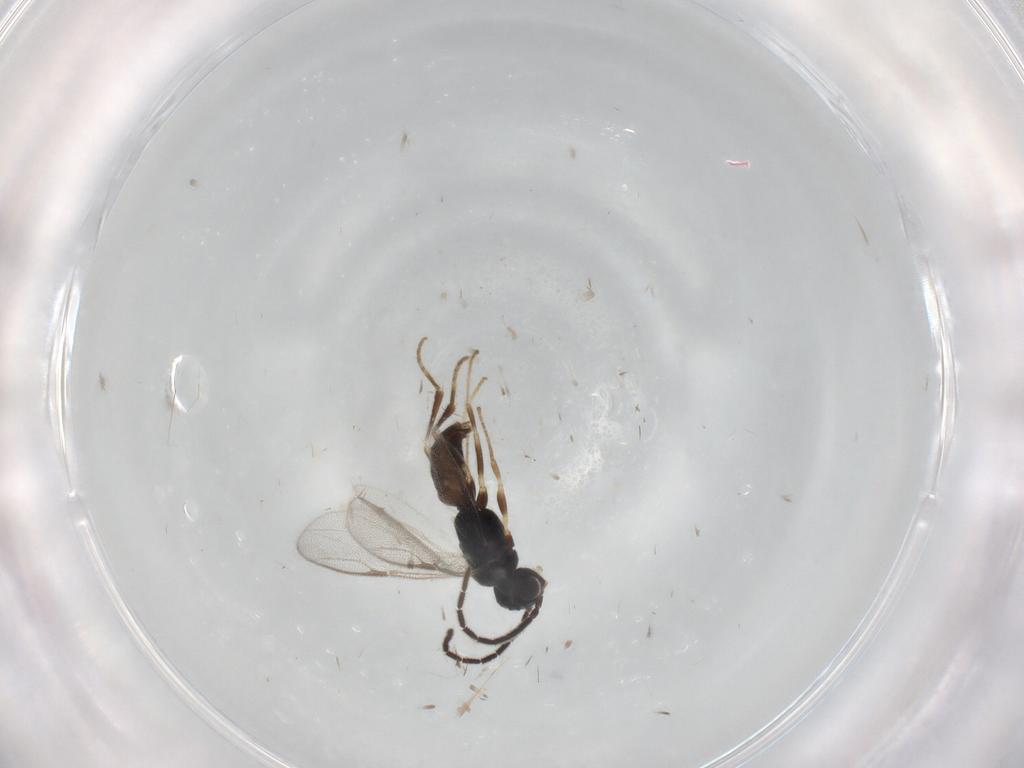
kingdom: Animalia
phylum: Arthropoda
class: Insecta
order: Hymenoptera
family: Dryinidae
